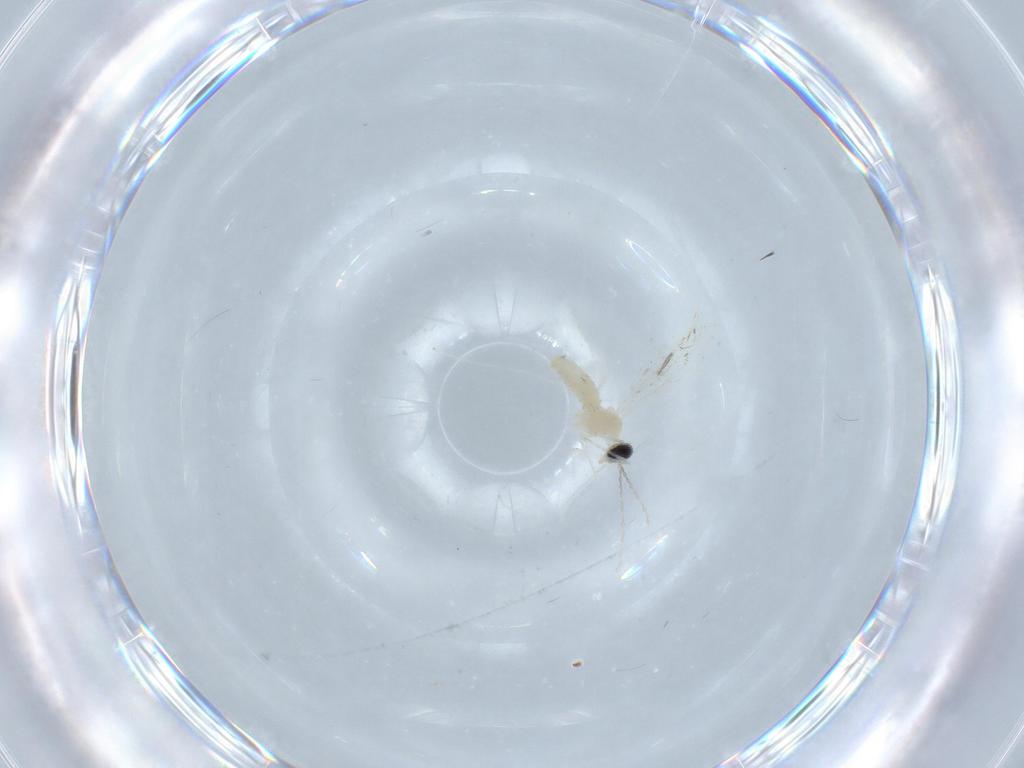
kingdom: Animalia
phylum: Arthropoda
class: Insecta
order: Diptera
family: Cecidomyiidae
